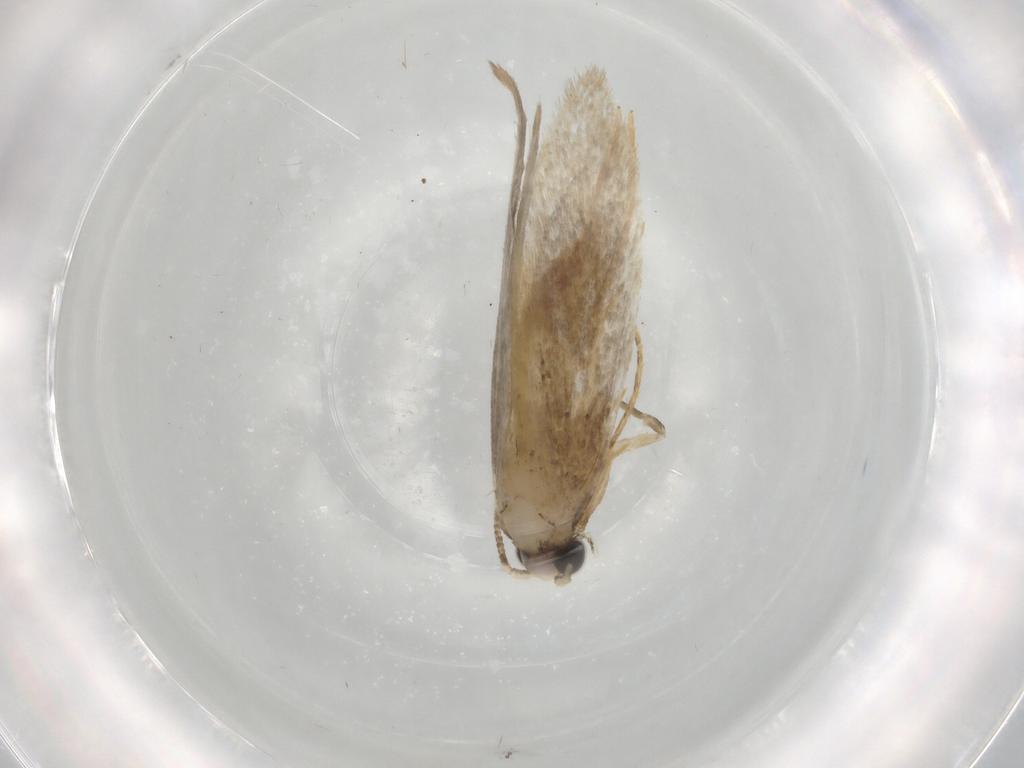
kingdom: Animalia
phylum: Arthropoda
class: Insecta
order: Lepidoptera
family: Tineidae
